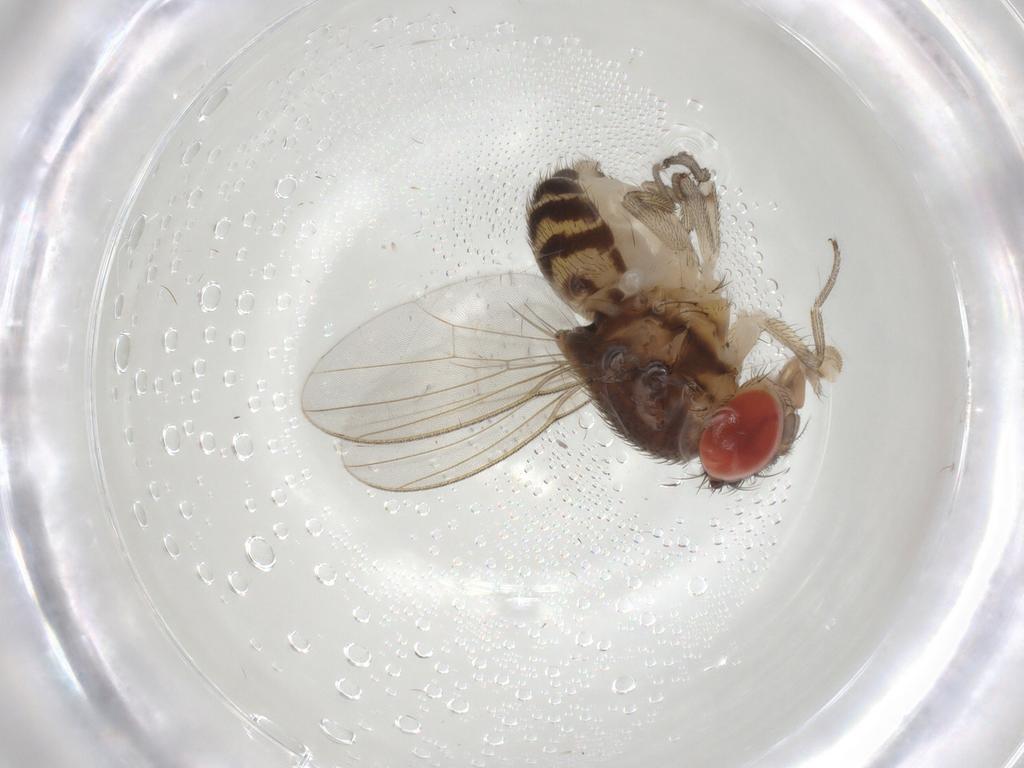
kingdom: Animalia
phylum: Arthropoda
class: Insecta
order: Diptera
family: Drosophilidae
